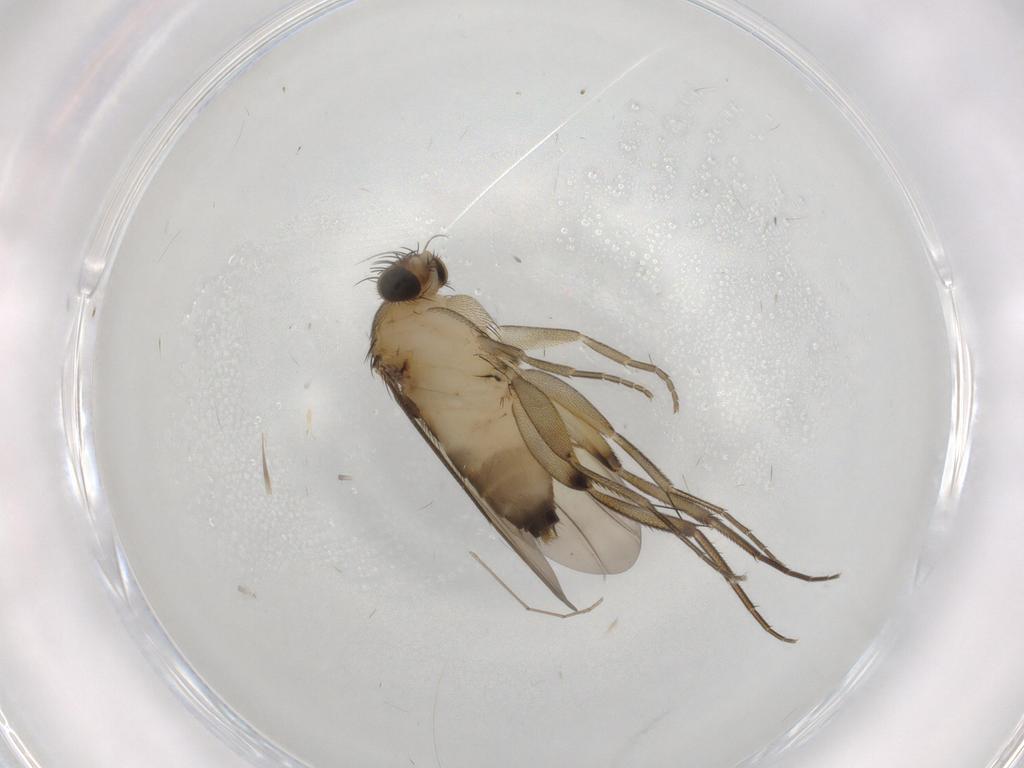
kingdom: Animalia
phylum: Arthropoda
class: Insecta
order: Diptera
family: Phoridae
